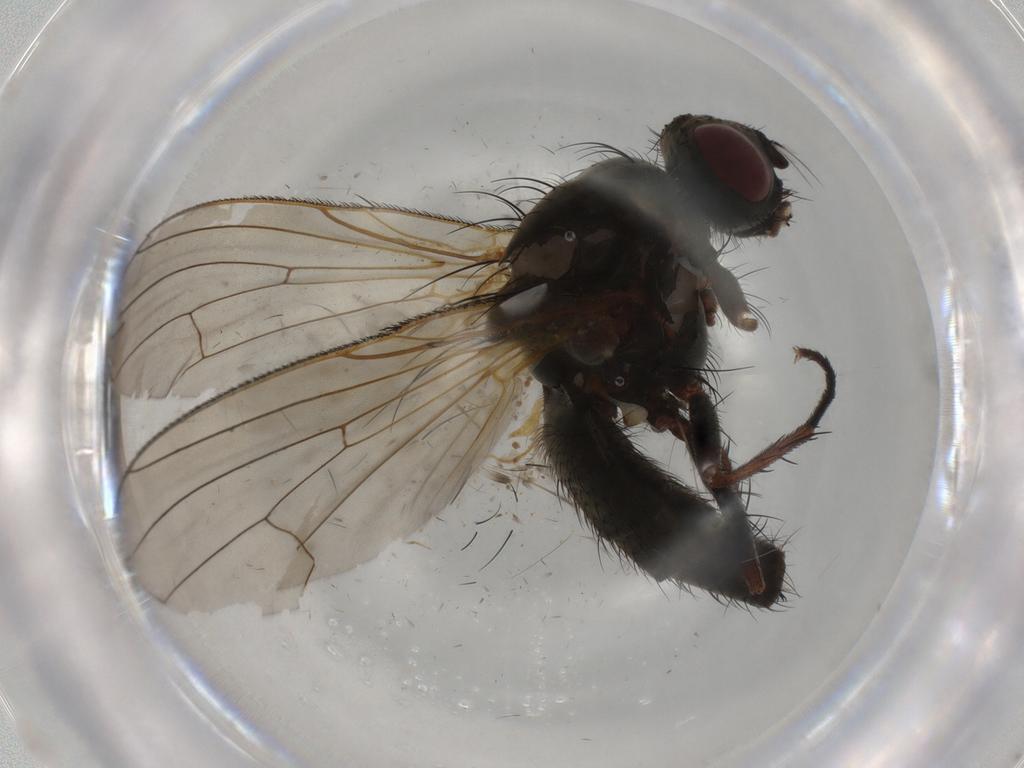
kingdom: Animalia
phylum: Arthropoda
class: Insecta
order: Diptera
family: Anthomyiidae
